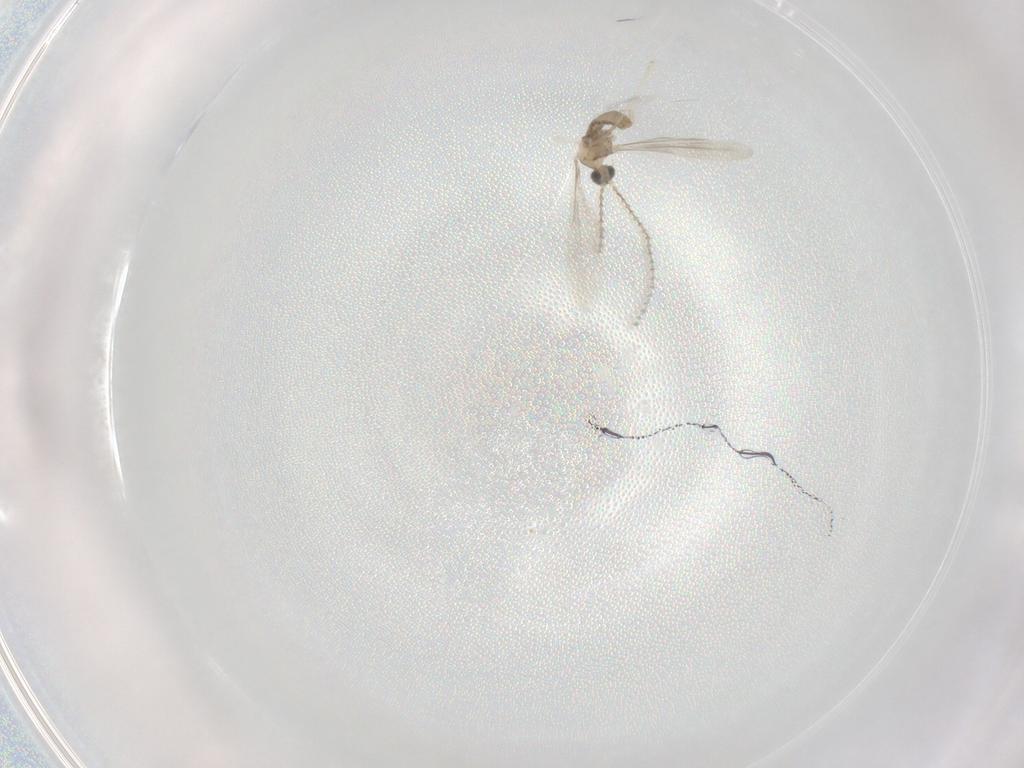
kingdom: Animalia
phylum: Arthropoda
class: Insecta
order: Diptera
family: Cecidomyiidae
